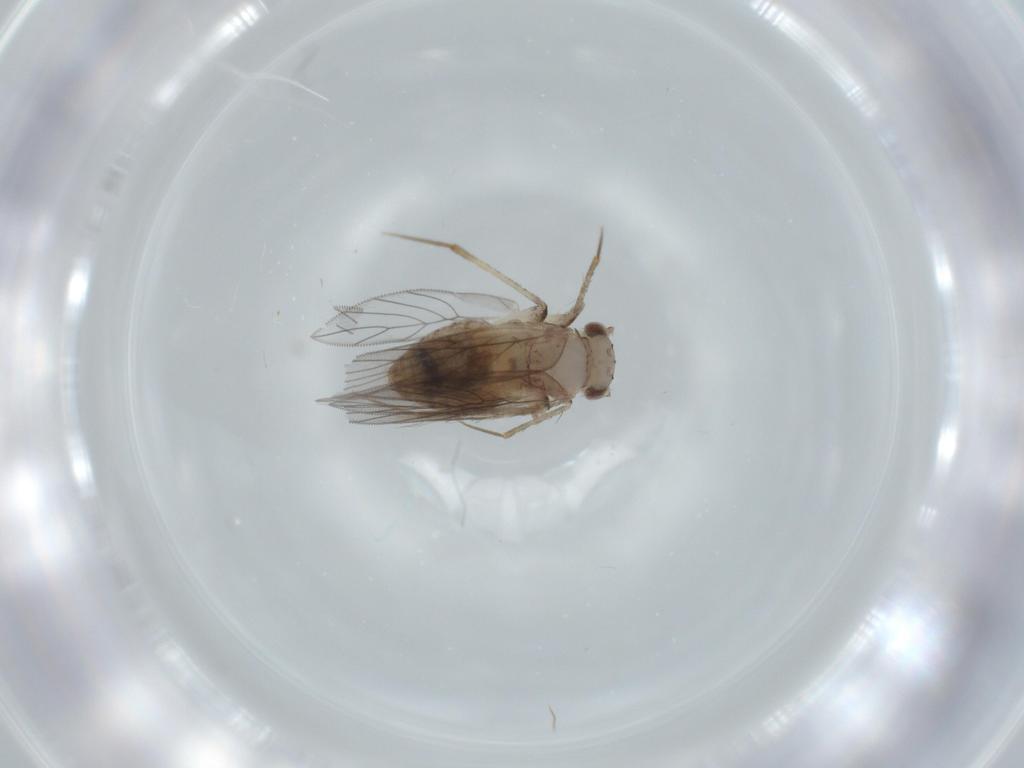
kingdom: Animalia
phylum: Arthropoda
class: Insecta
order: Psocodea
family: Lepidopsocidae
